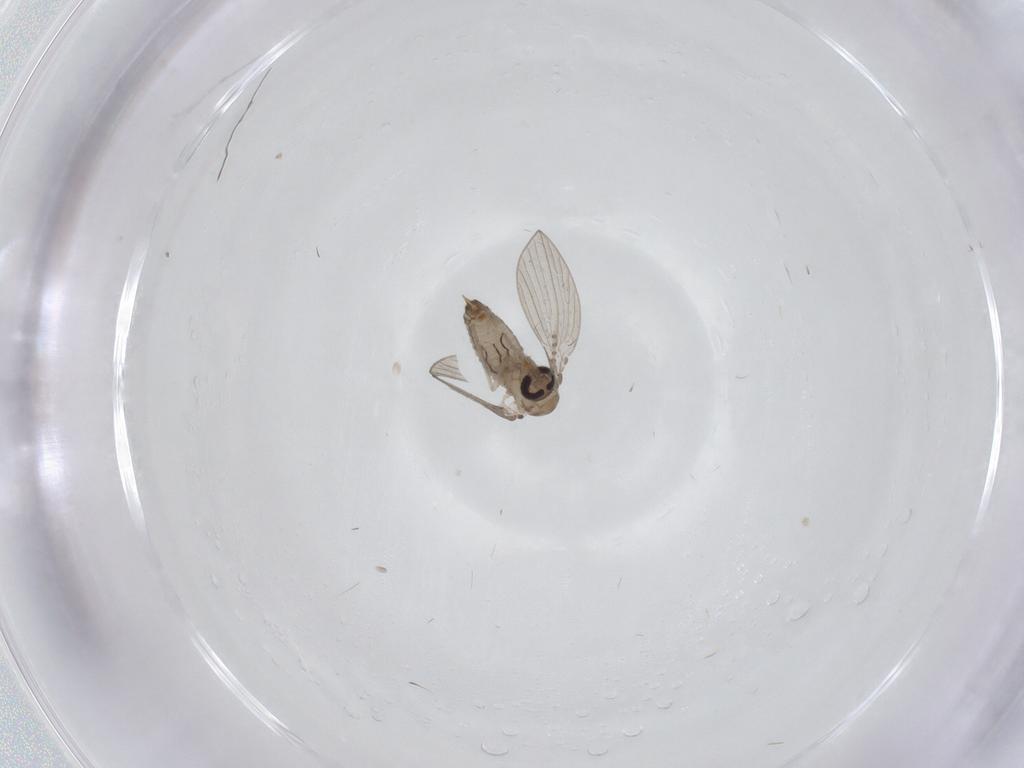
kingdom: Animalia
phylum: Arthropoda
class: Insecta
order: Diptera
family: Psychodidae
